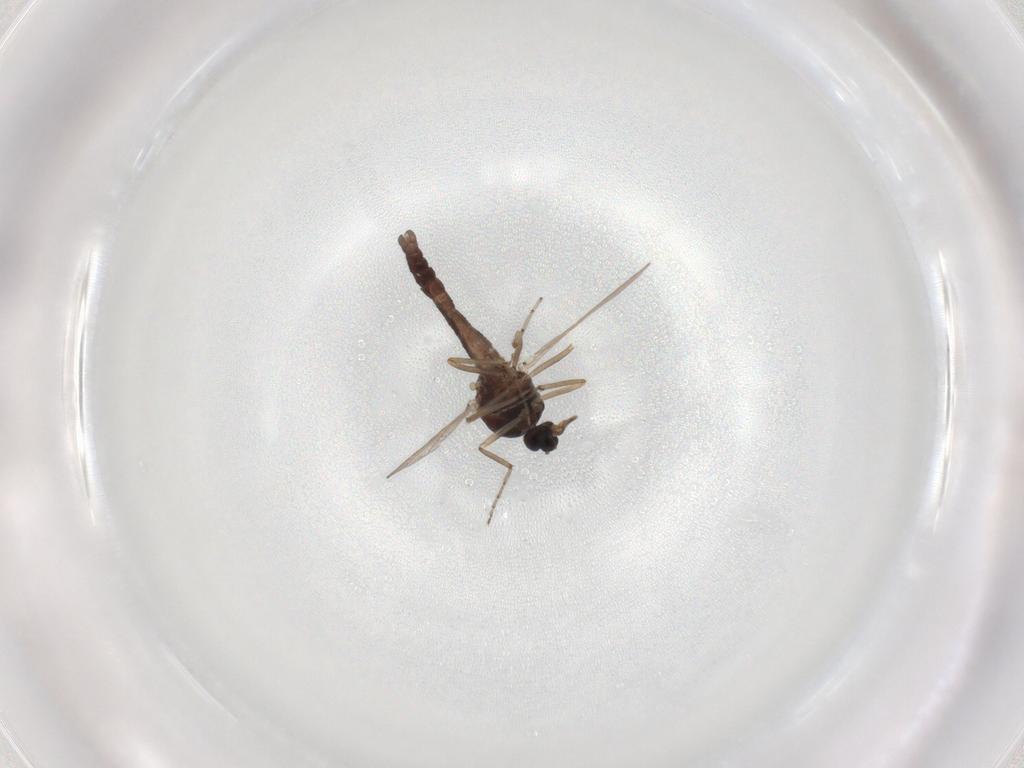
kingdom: Animalia
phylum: Arthropoda
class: Insecta
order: Diptera
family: Ceratopogonidae
